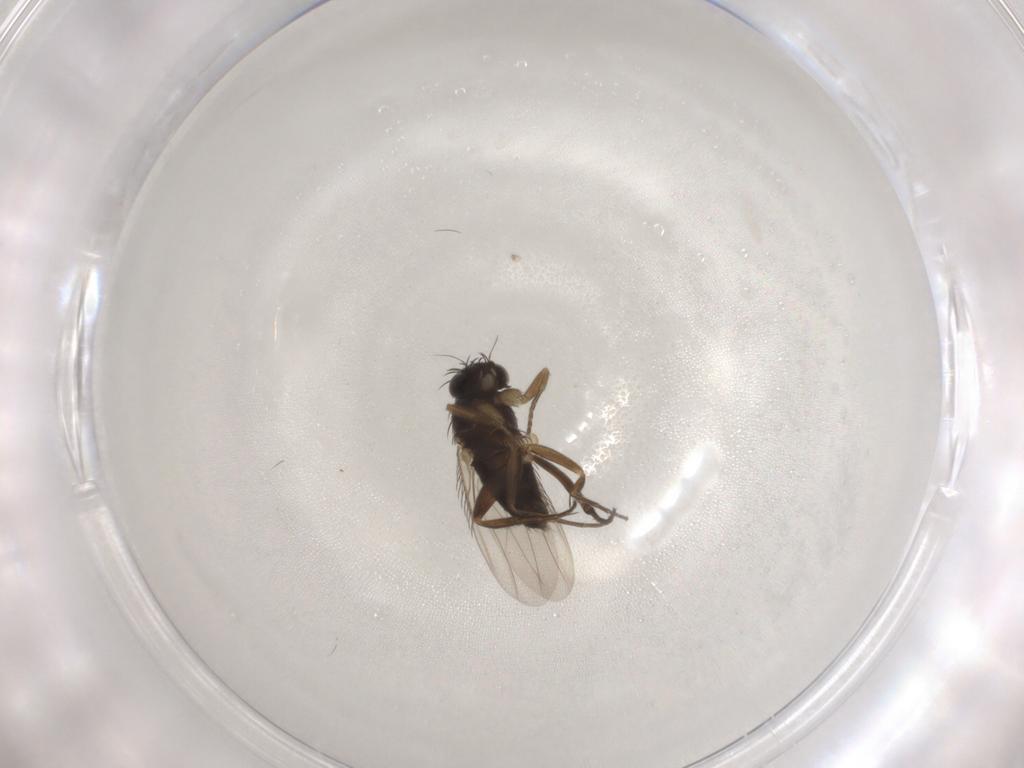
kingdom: Animalia
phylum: Arthropoda
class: Insecta
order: Diptera
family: Phoridae
